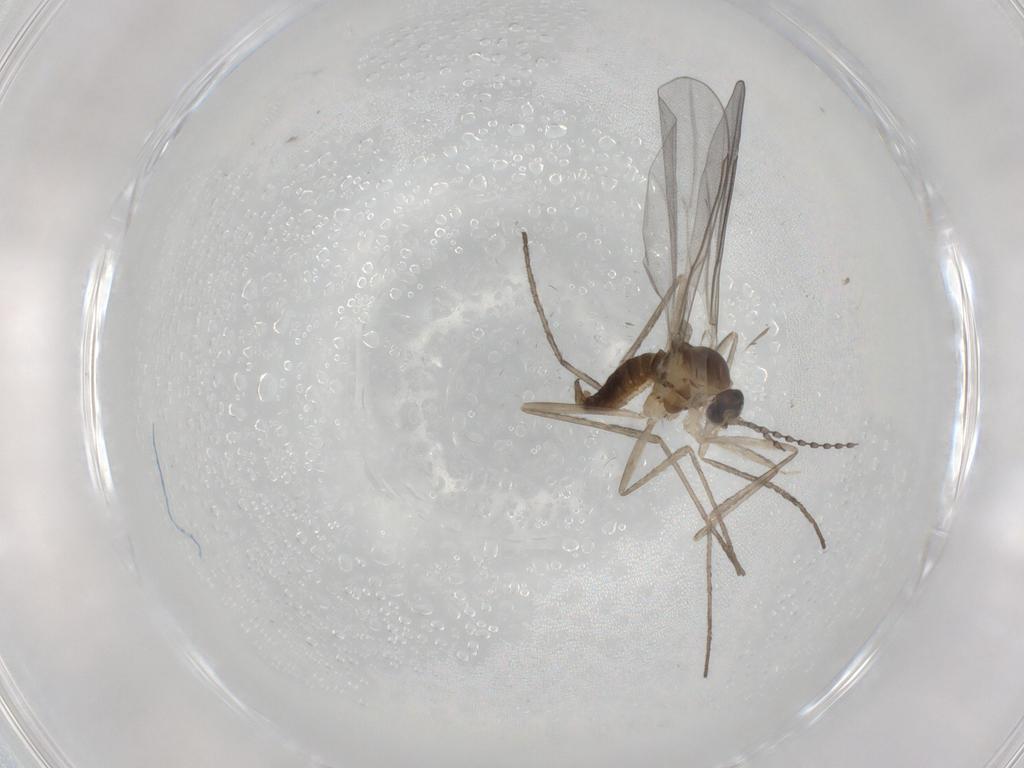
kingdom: Animalia
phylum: Arthropoda
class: Insecta
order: Diptera
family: Cecidomyiidae
